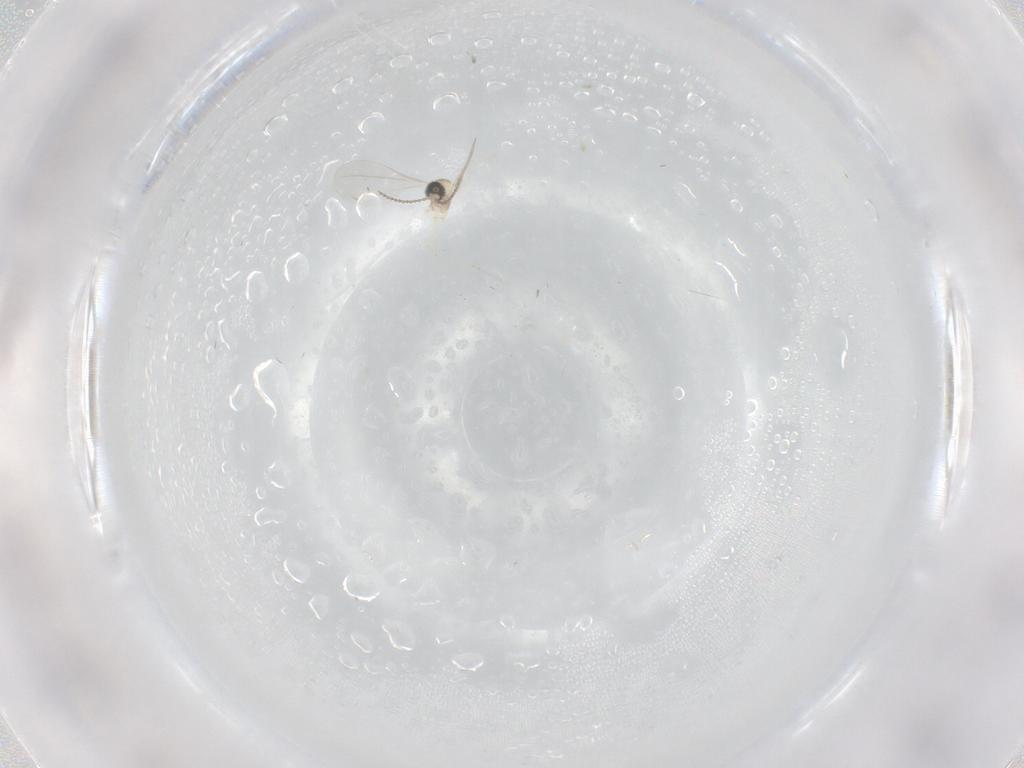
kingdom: Animalia
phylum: Arthropoda
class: Insecta
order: Diptera
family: Cecidomyiidae
